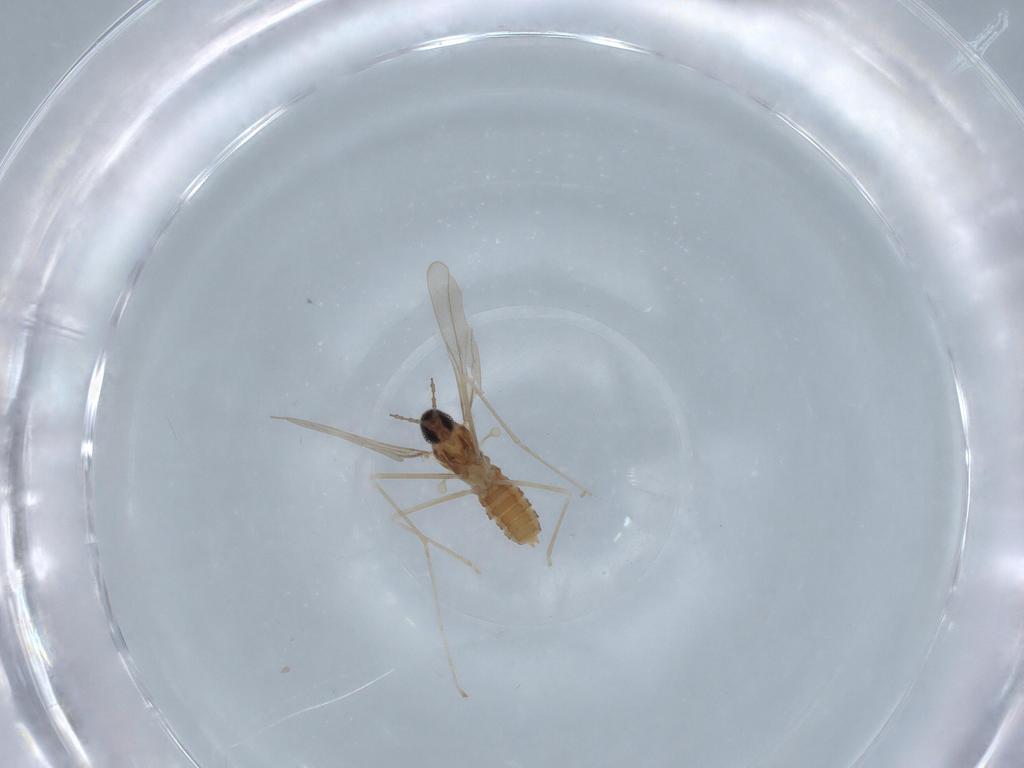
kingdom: Animalia
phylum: Arthropoda
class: Insecta
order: Diptera
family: Cecidomyiidae
